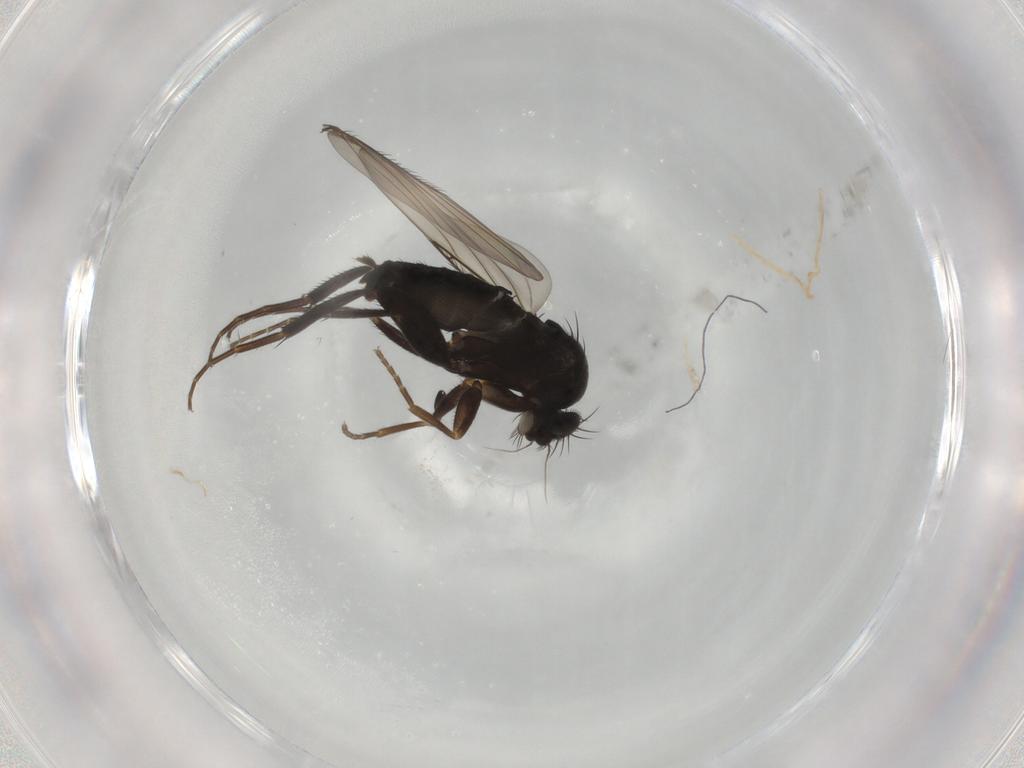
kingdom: Animalia
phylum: Arthropoda
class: Insecta
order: Diptera
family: Phoridae
